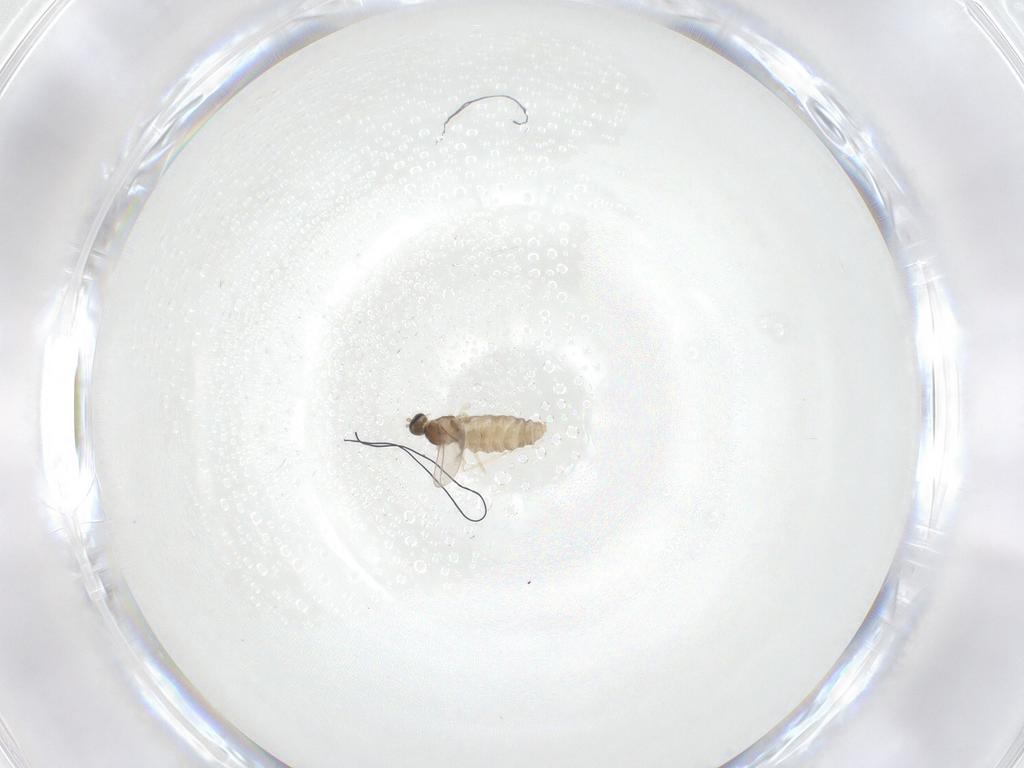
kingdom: Animalia
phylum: Arthropoda
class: Insecta
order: Diptera
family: Cecidomyiidae
